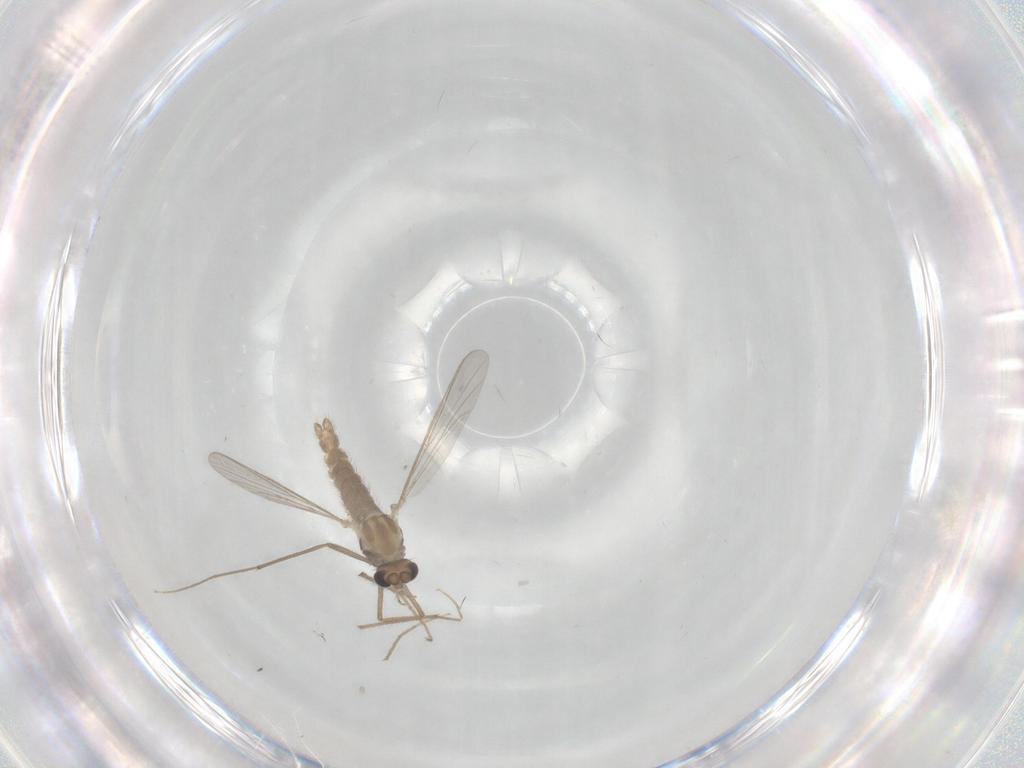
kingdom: Animalia
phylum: Arthropoda
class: Insecta
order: Diptera
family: Chironomidae
